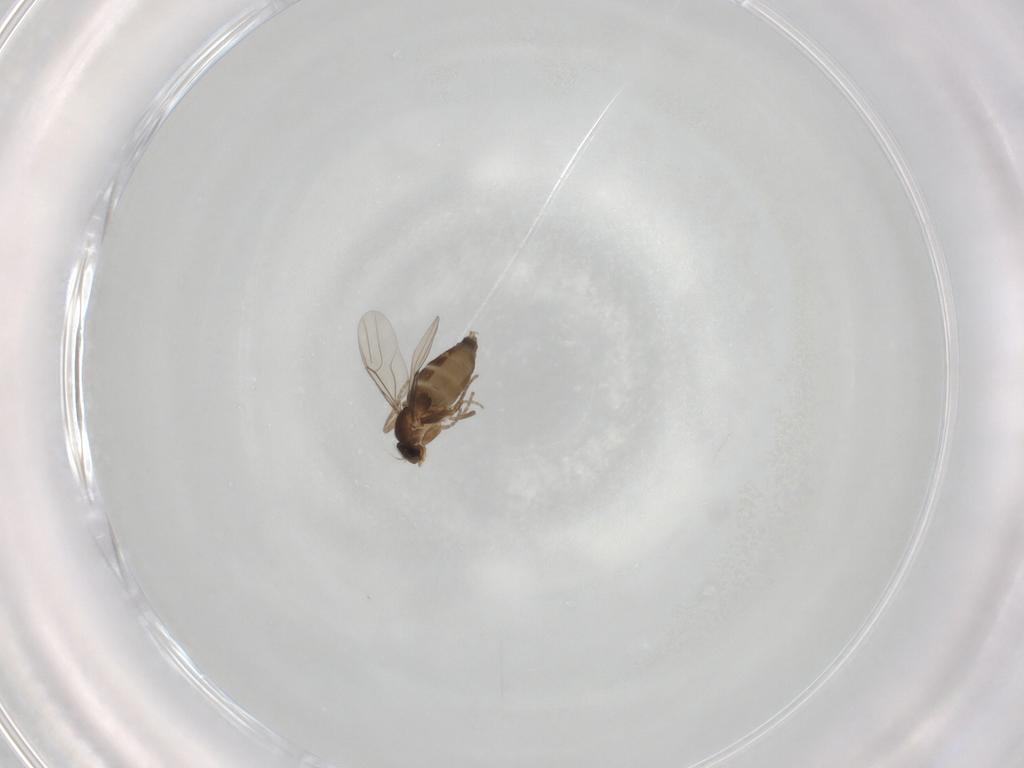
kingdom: Animalia
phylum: Arthropoda
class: Insecta
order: Diptera
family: Phoridae
